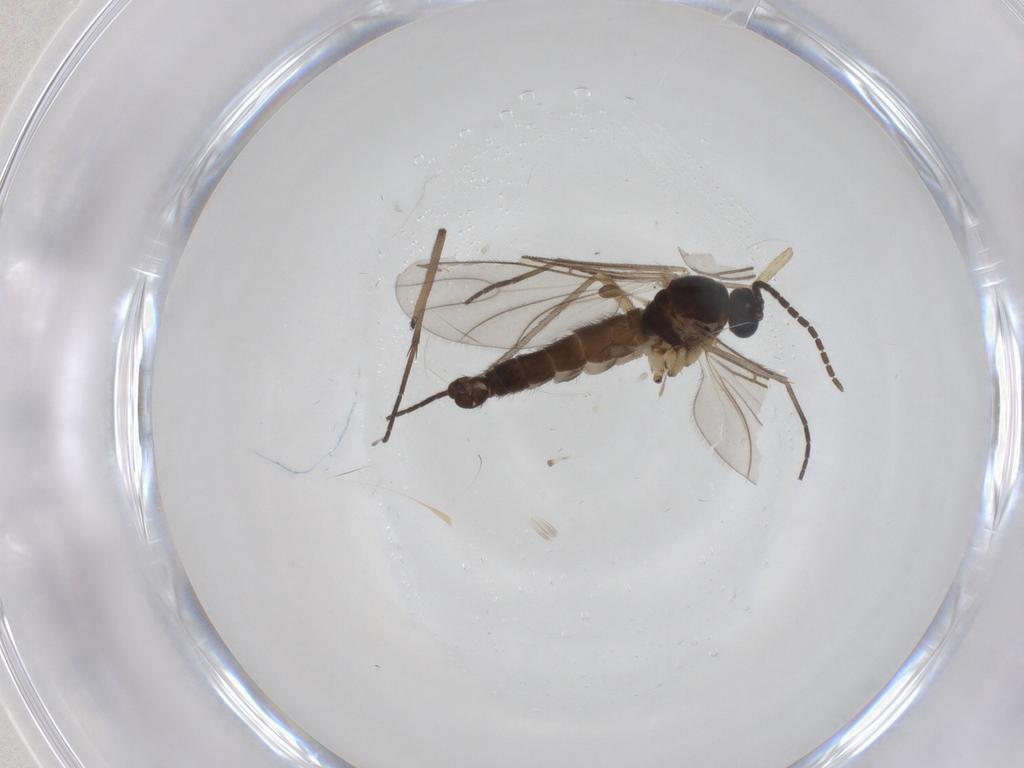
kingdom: Animalia
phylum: Arthropoda
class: Insecta
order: Diptera
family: Sciaridae
